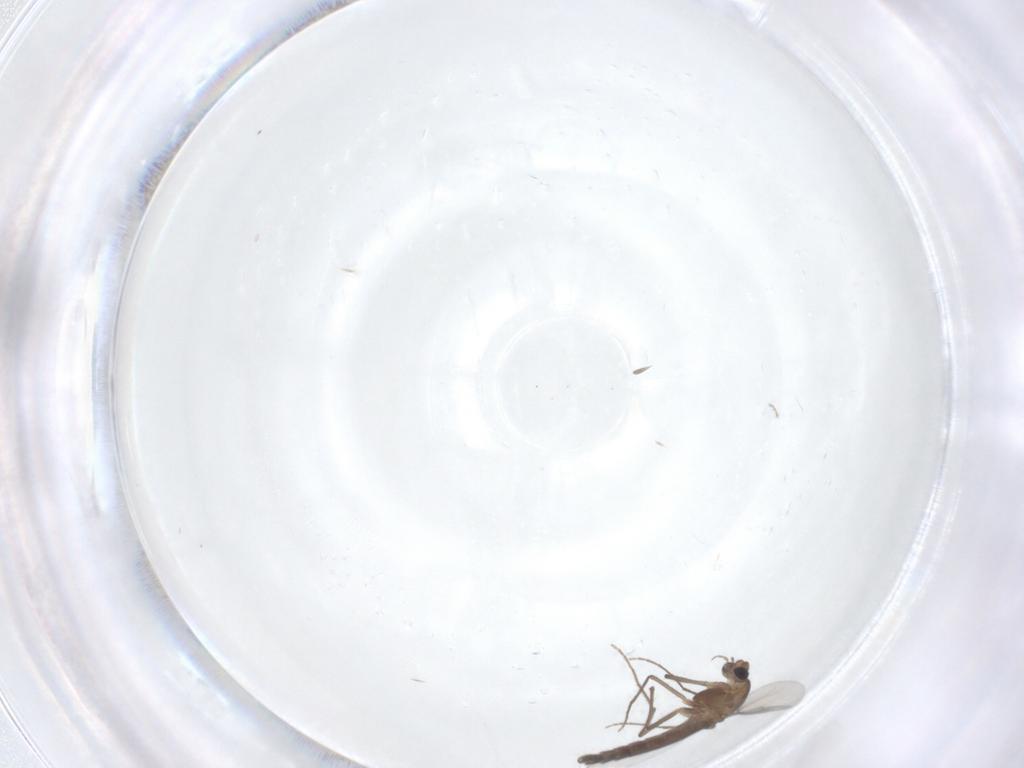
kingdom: Animalia
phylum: Arthropoda
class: Insecta
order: Diptera
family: Chironomidae
